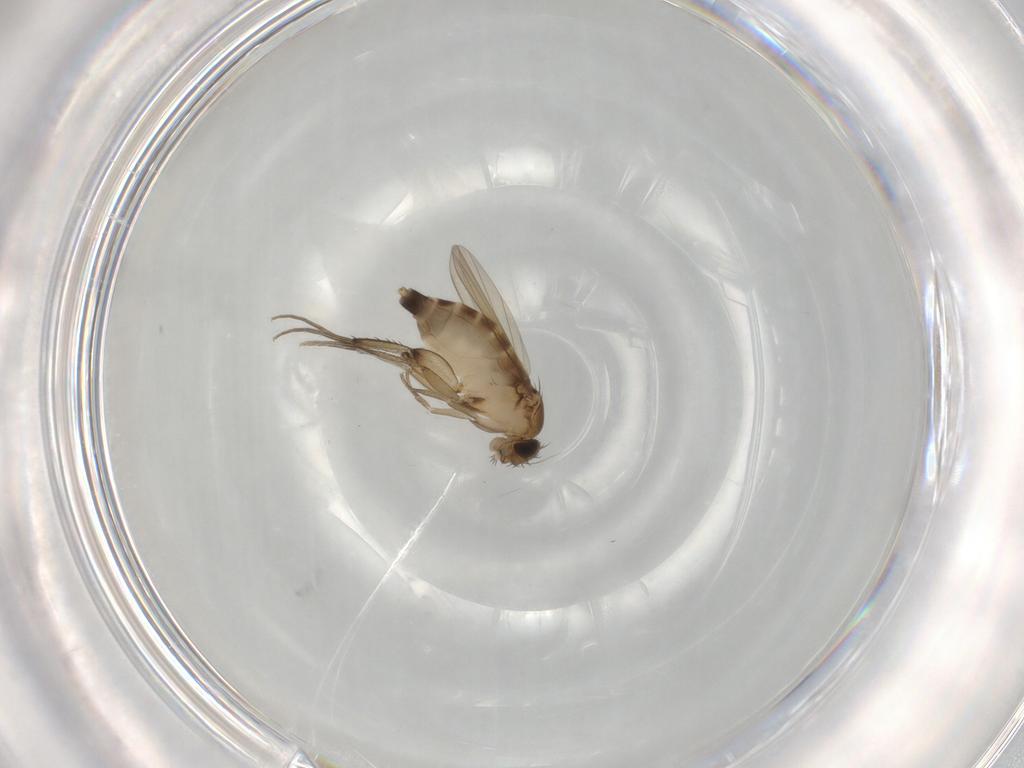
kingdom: Animalia
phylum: Arthropoda
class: Insecta
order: Diptera
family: Phoridae
